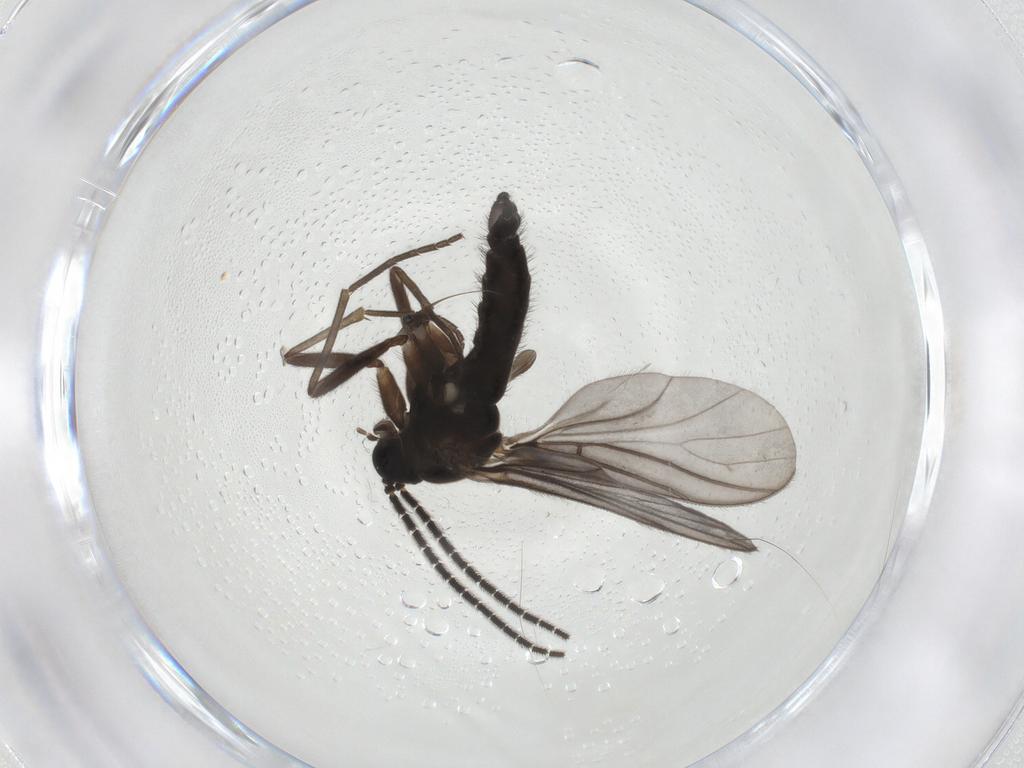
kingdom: Animalia
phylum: Arthropoda
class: Insecta
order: Diptera
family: Sciaridae
